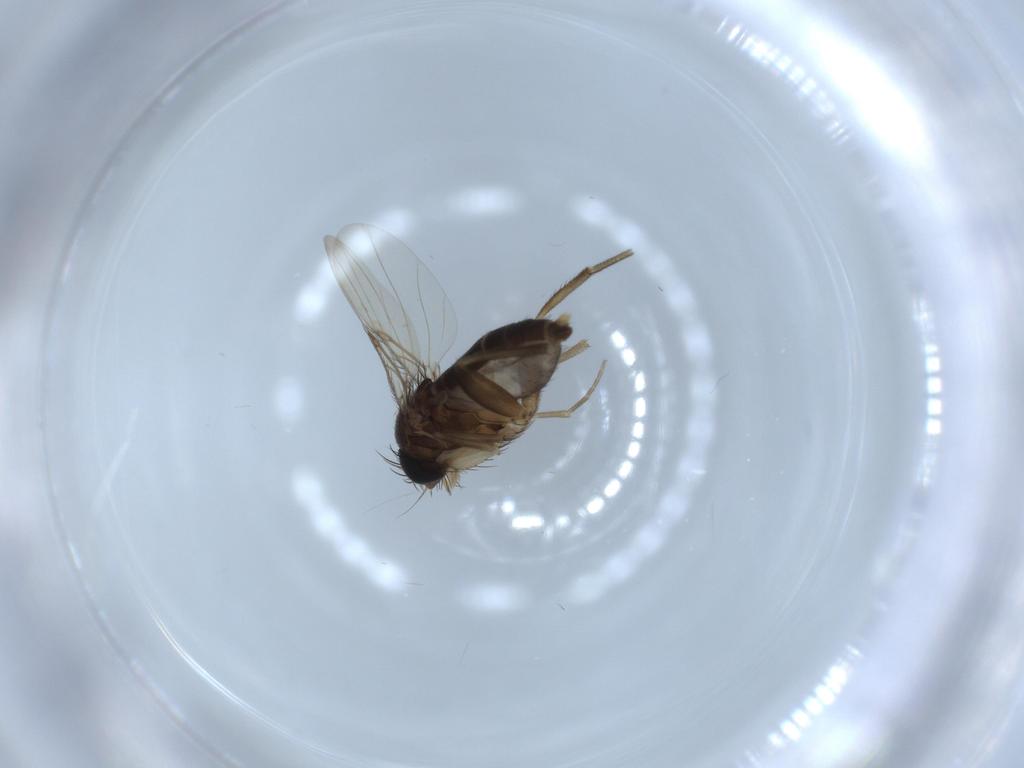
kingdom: Animalia
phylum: Arthropoda
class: Insecta
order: Diptera
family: Phoridae
